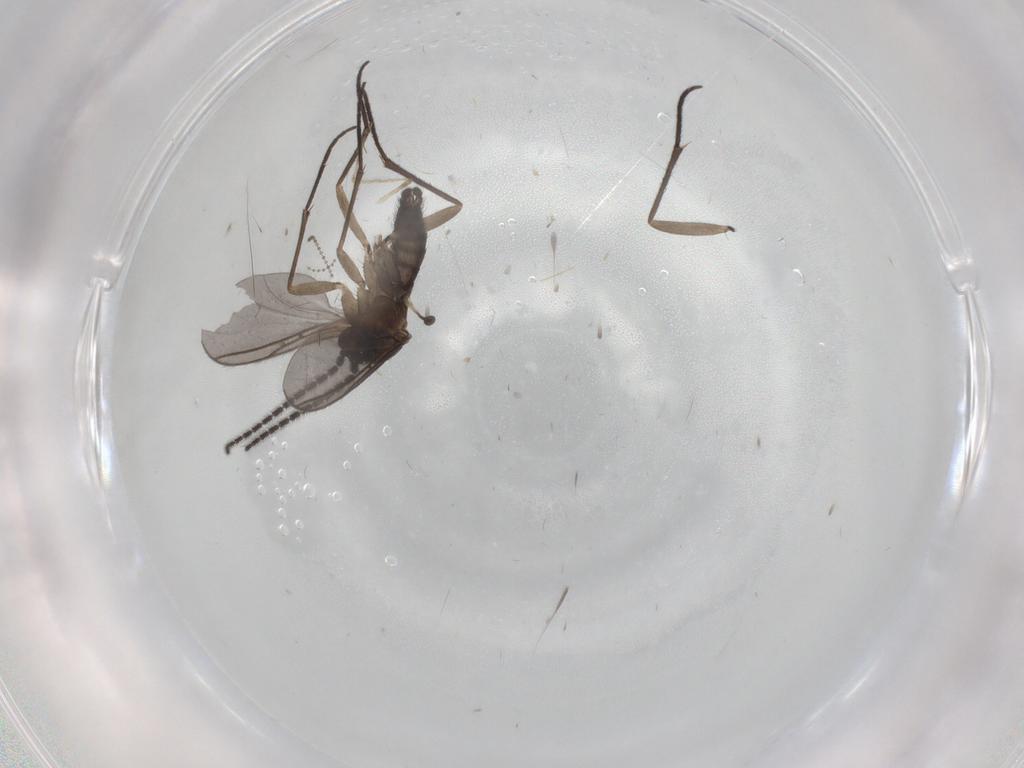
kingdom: Animalia
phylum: Arthropoda
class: Insecta
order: Diptera
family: Sciaridae
